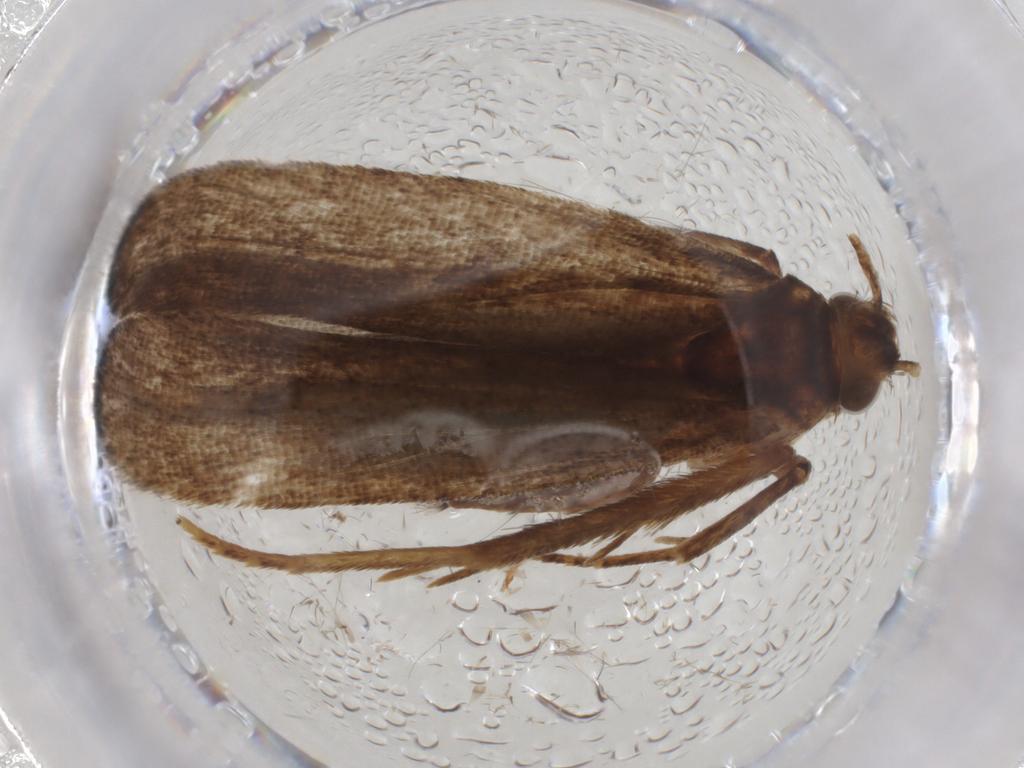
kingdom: Animalia
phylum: Arthropoda
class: Insecta
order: Lepidoptera
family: Autostichidae
